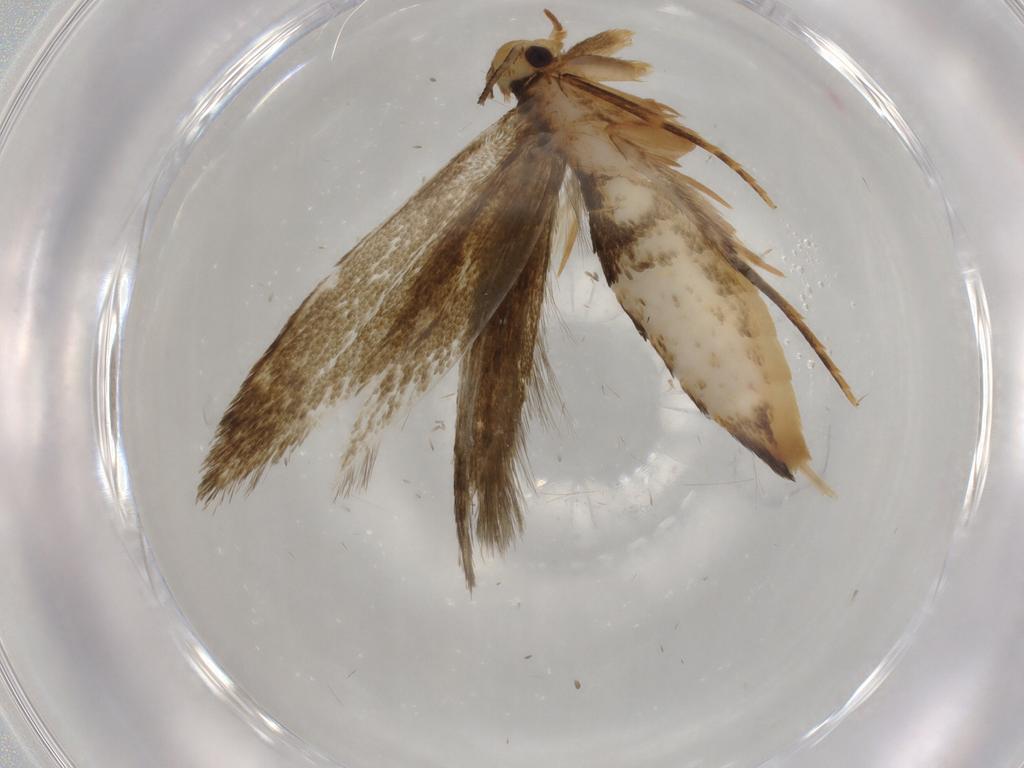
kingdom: Animalia
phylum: Arthropoda
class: Insecta
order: Lepidoptera
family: Tineidae
